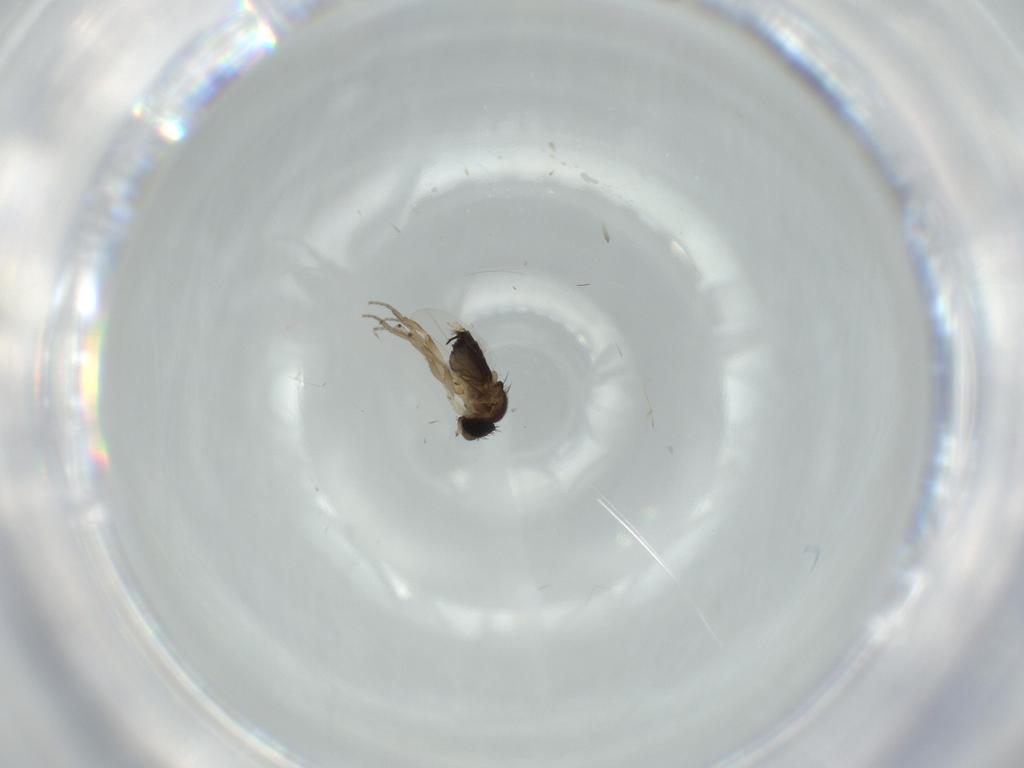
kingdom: Animalia
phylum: Arthropoda
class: Insecta
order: Diptera
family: Phoridae
